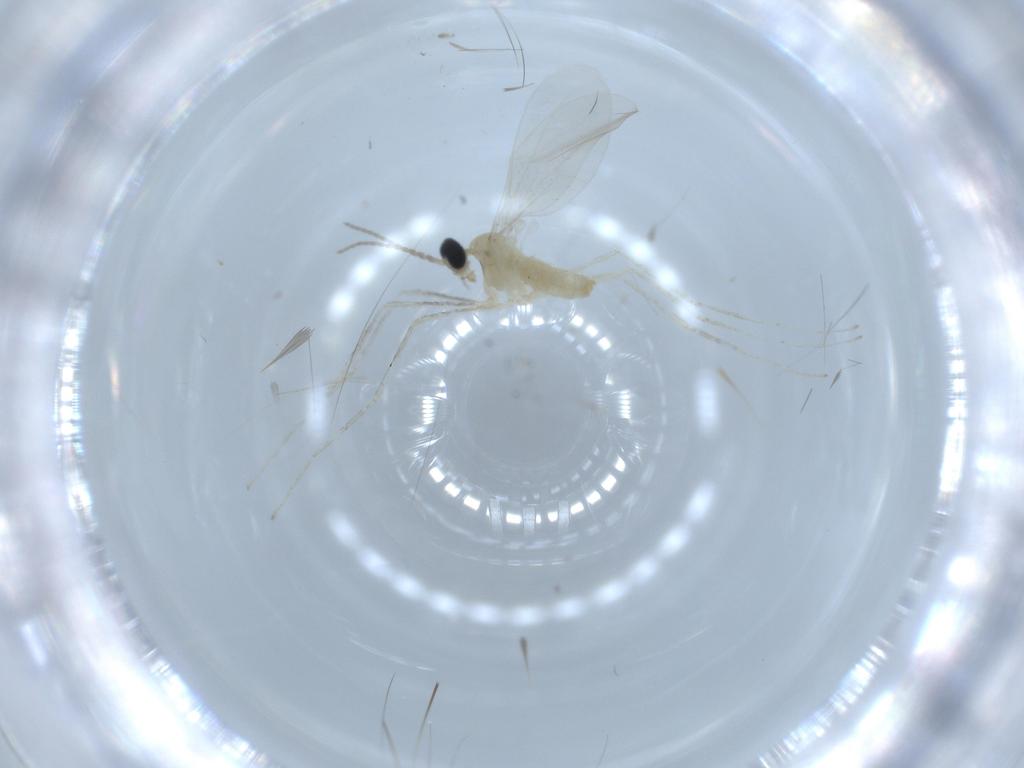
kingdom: Animalia
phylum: Arthropoda
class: Insecta
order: Diptera
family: Cecidomyiidae
